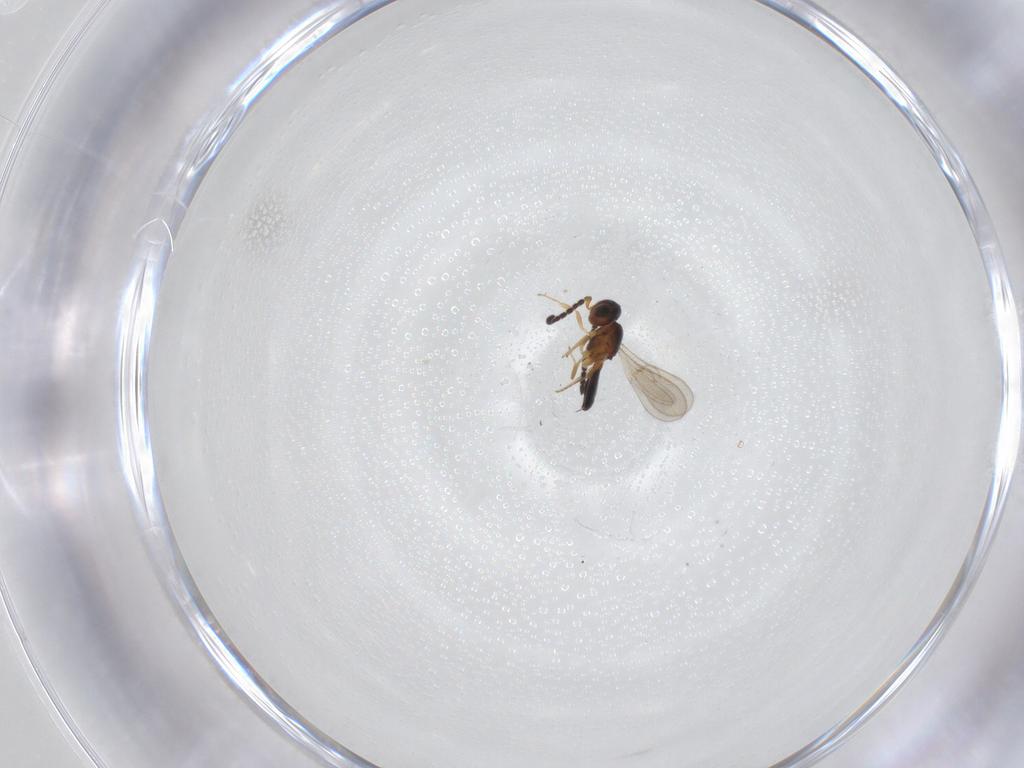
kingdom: Animalia
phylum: Arthropoda
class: Insecta
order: Hymenoptera
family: Scelionidae
